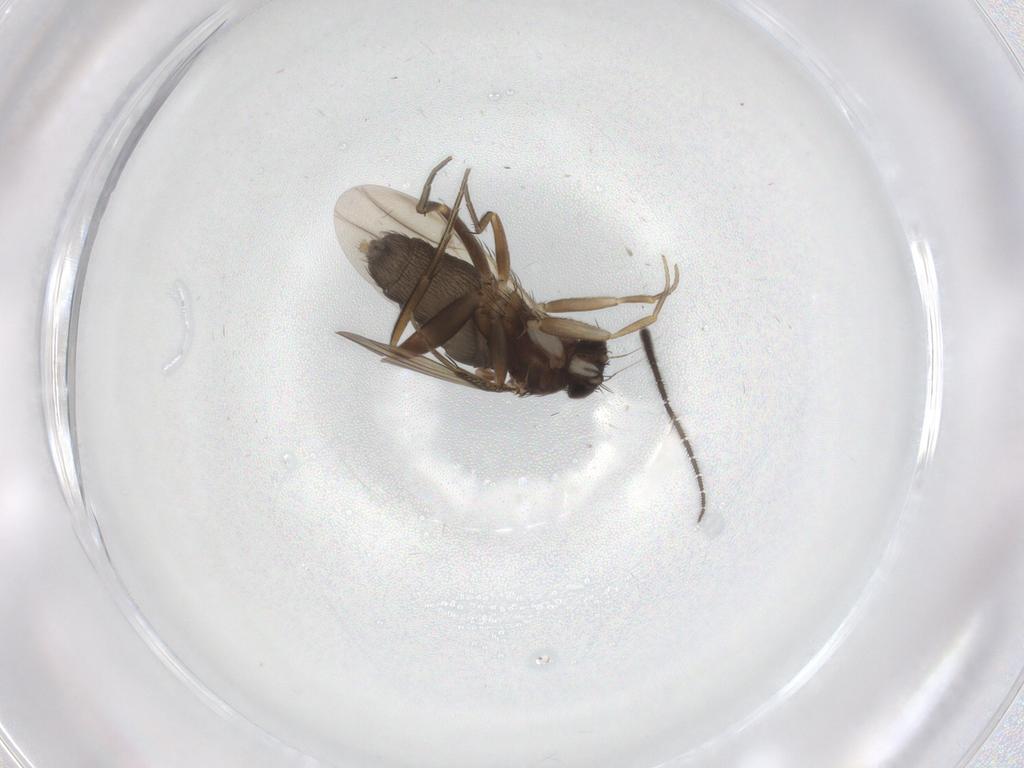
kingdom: Animalia
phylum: Arthropoda
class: Insecta
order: Diptera
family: Phoridae
